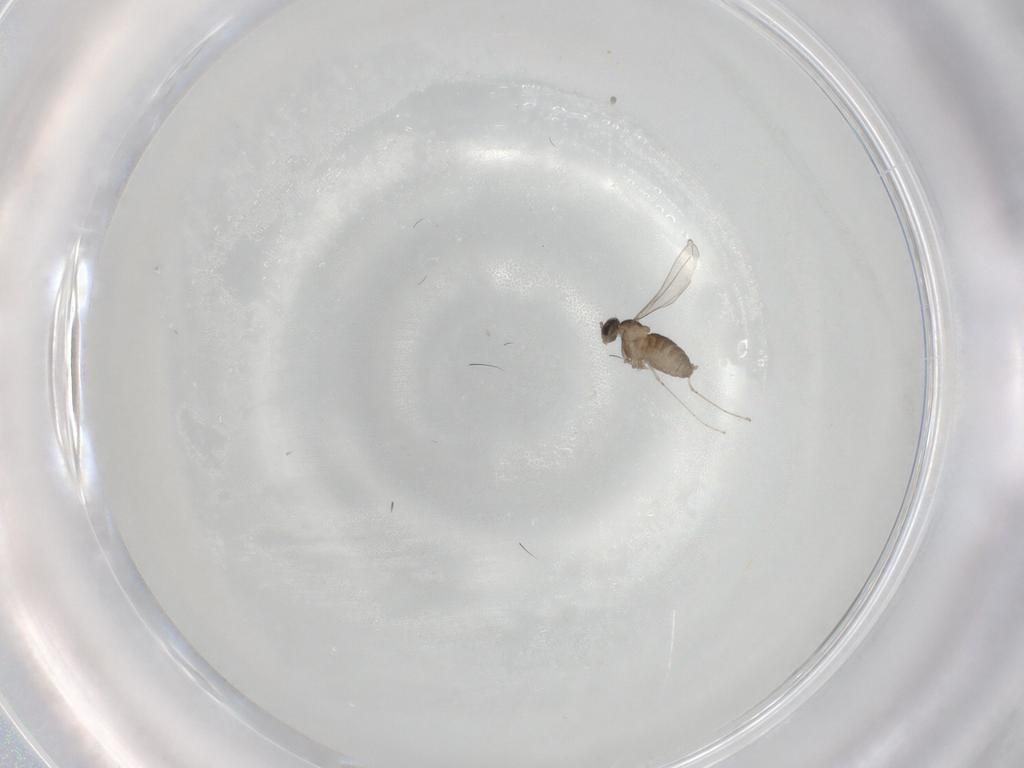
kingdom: Animalia
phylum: Arthropoda
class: Insecta
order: Diptera
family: Cecidomyiidae
